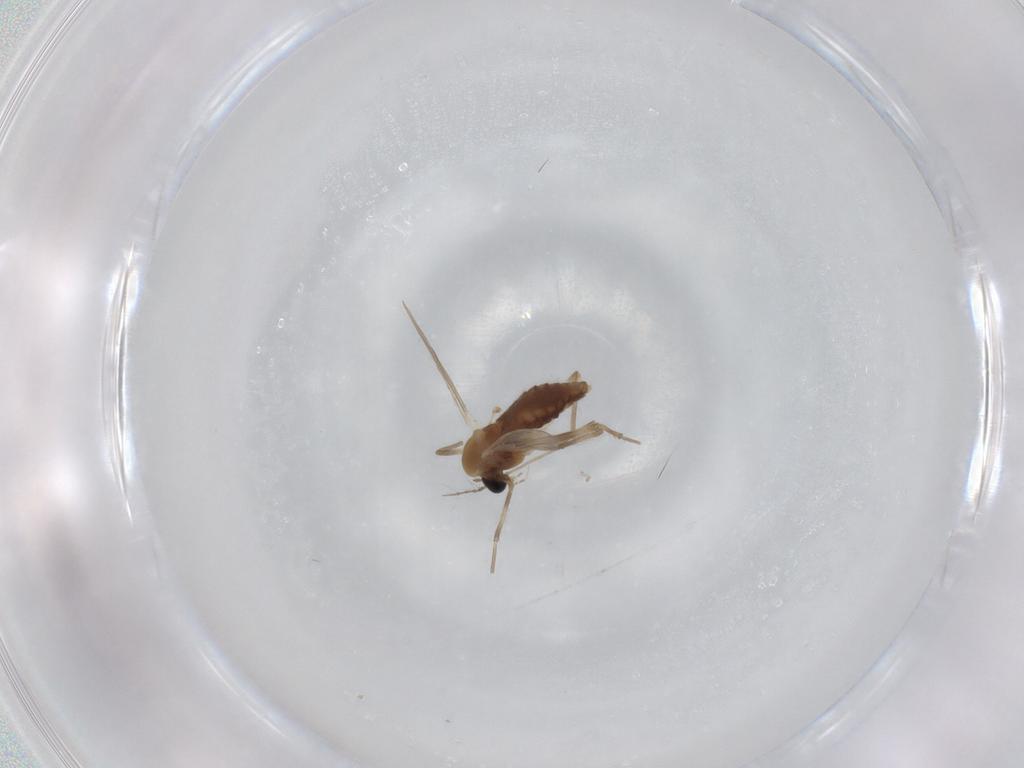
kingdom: Animalia
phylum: Arthropoda
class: Insecta
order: Diptera
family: Chironomidae
